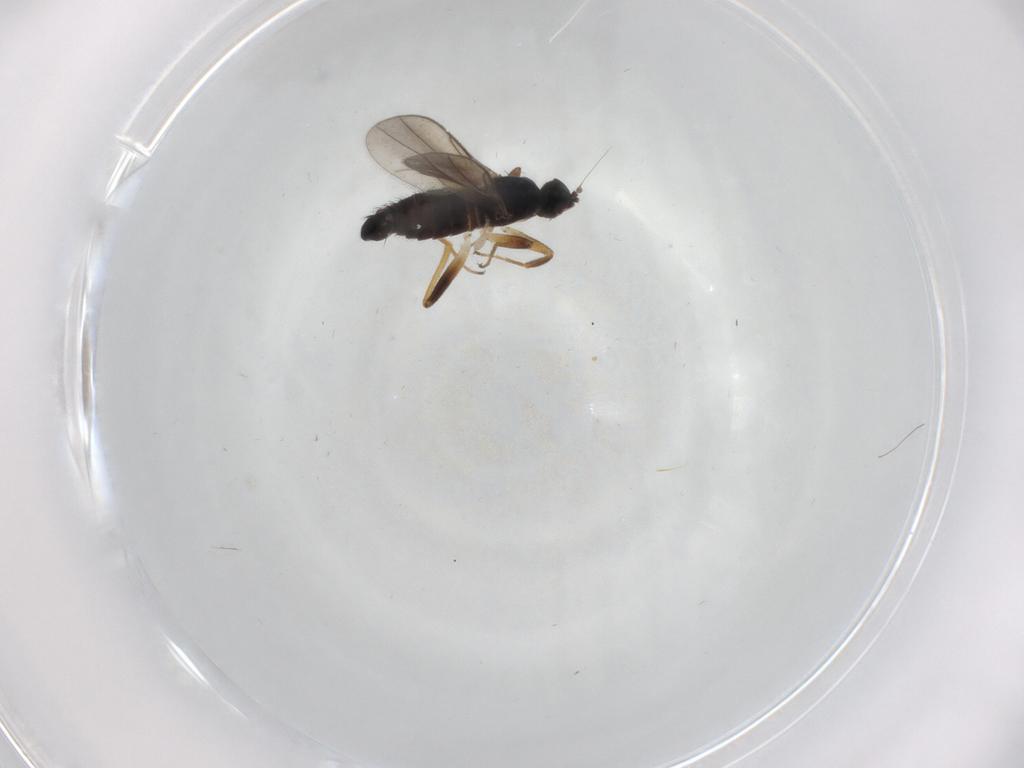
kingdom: Animalia
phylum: Arthropoda
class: Insecta
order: Diptera
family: Hybotidae
